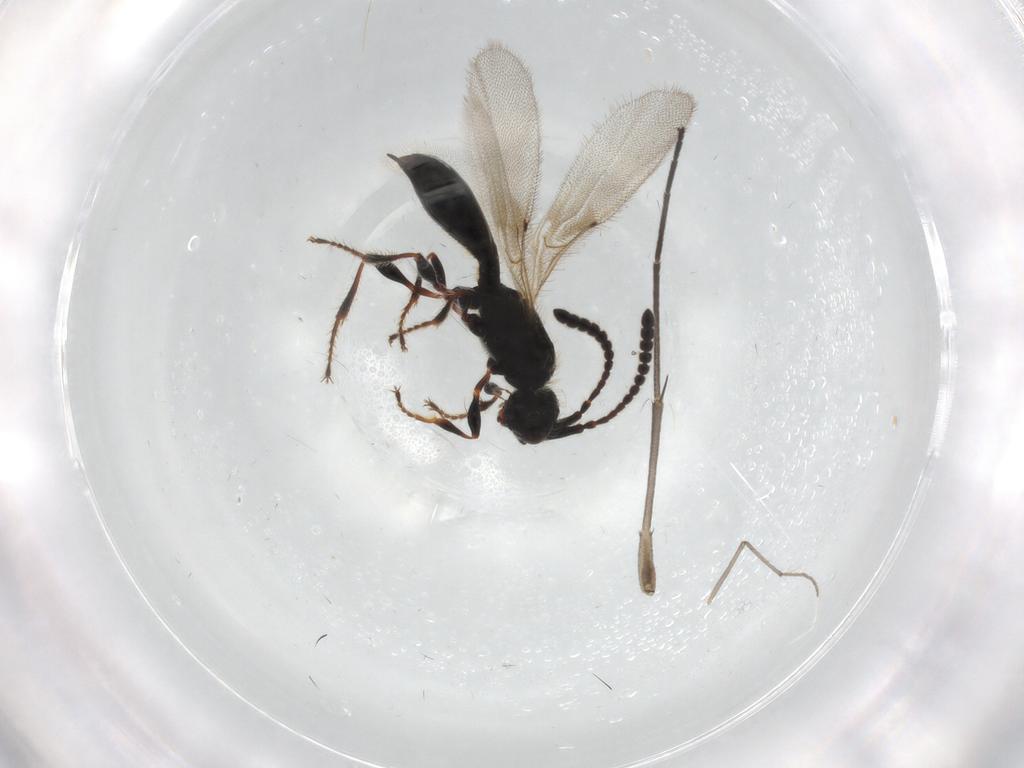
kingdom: Animalia
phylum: Arthropoda
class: Insecta
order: Hymenoptera
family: Diapriidae
